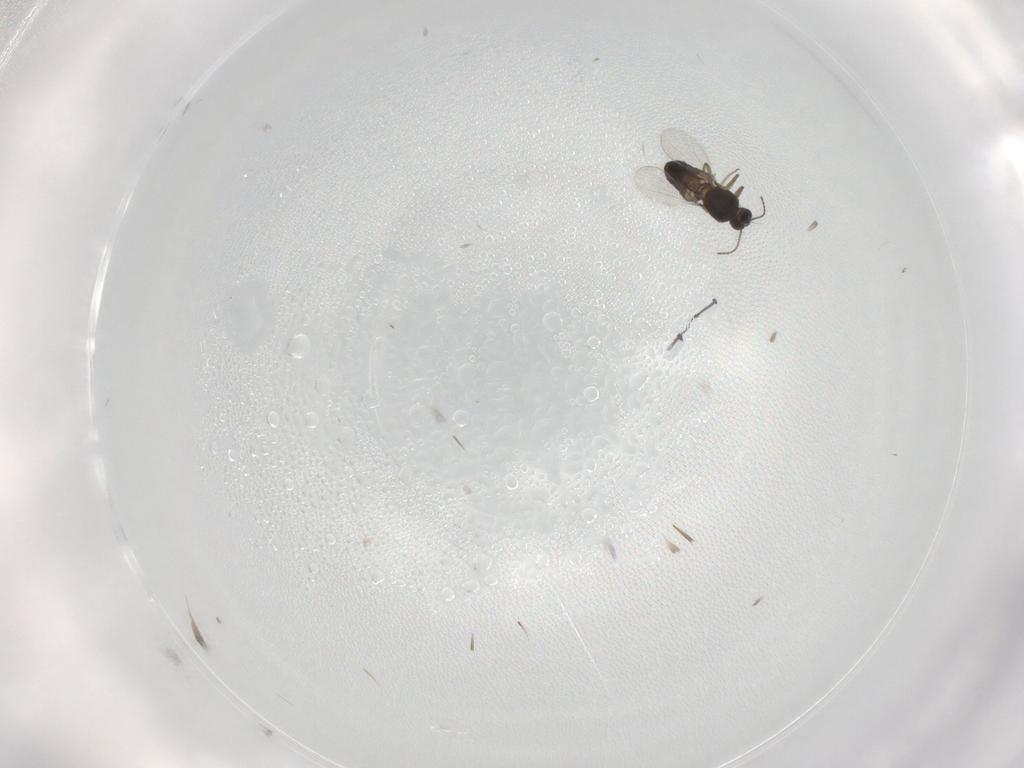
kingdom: Animalia
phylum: Arthropoda
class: Insecta
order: Diptera
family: Ceratopogonidae
